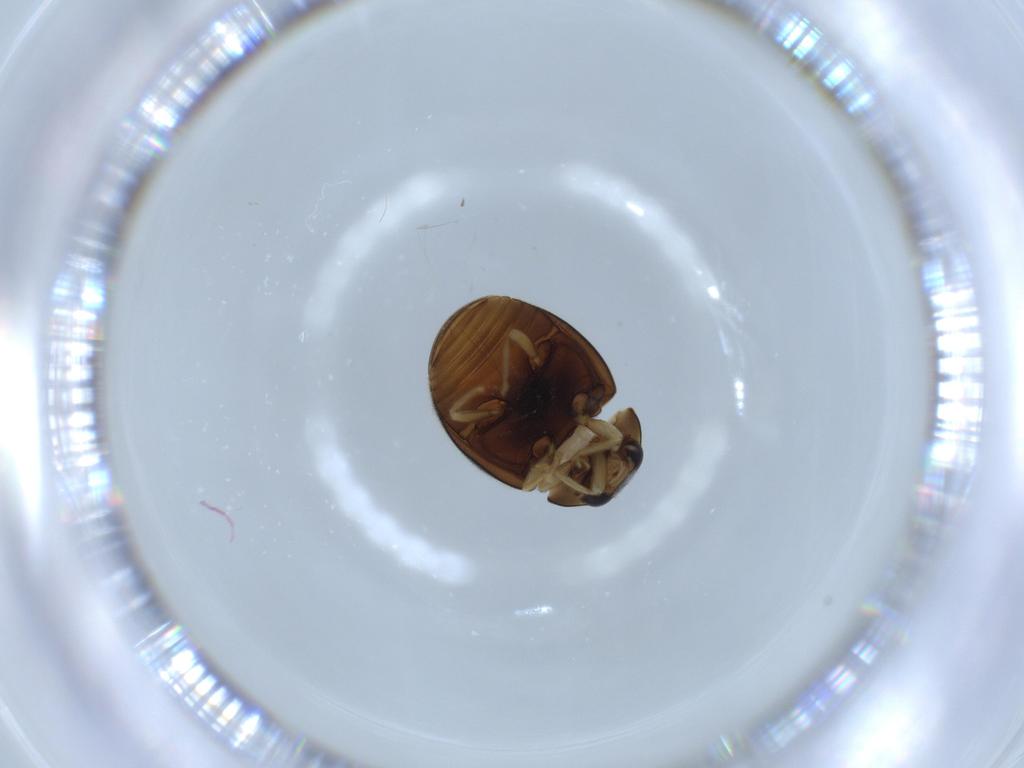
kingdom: Animalia
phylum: Arthropoda
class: Insecta
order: Coleoptera
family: Coccinellidae
